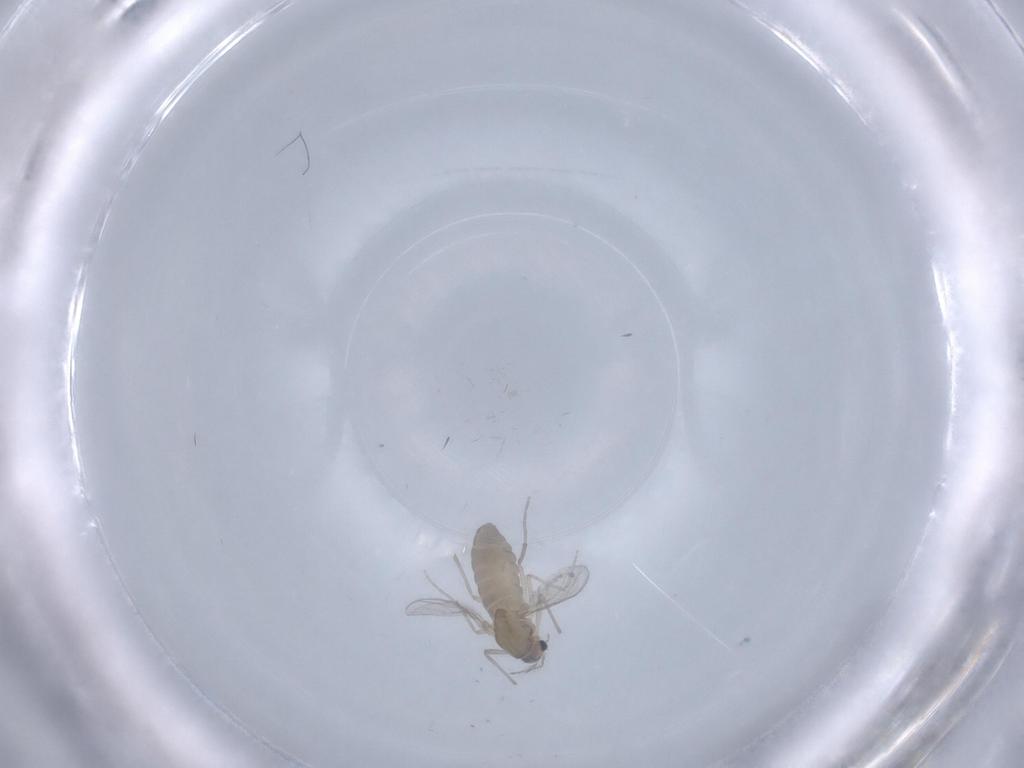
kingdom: Animalia
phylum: Arthropoda
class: Insecta
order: Diptera
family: Chironomidae
